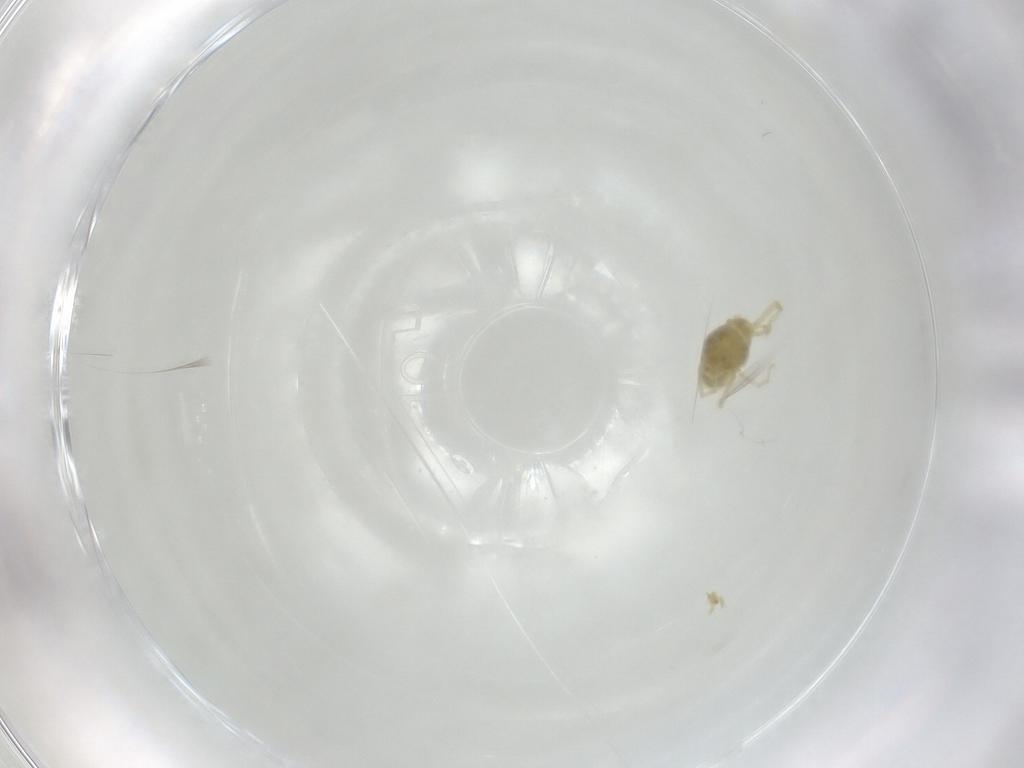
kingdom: Animalia
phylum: Arthropoda
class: Arachnida
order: Trombidiformes
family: Erythraeidae
